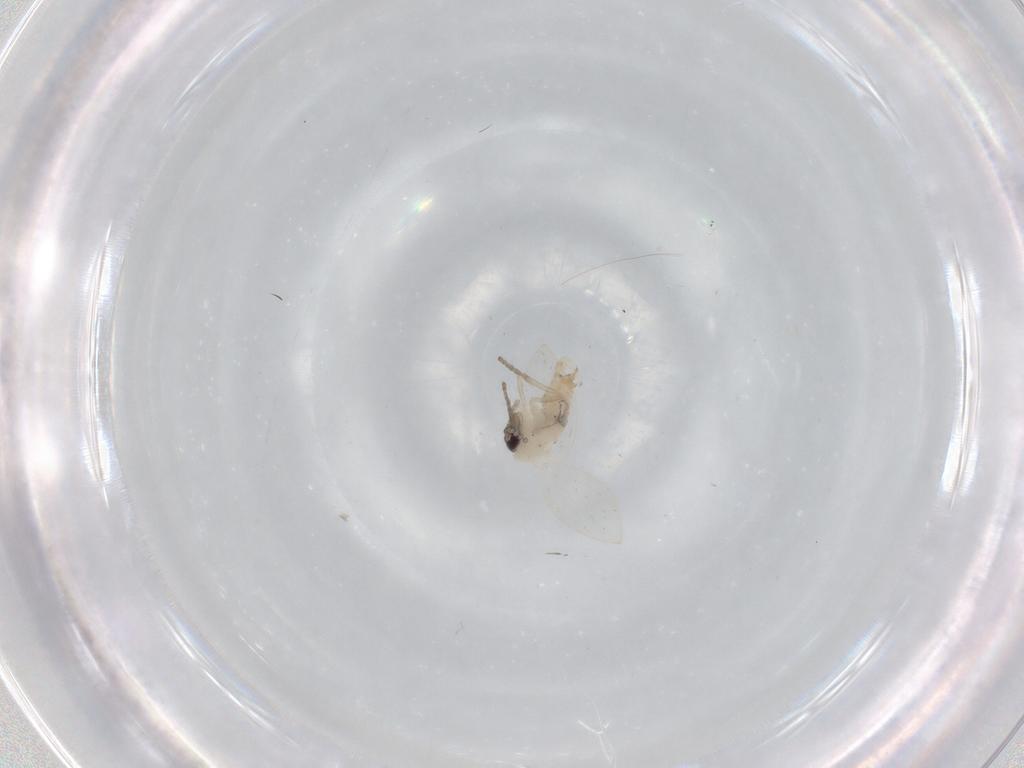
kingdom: Animalia
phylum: Arthropoda
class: Insecta
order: Diptera
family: Psychodidae
